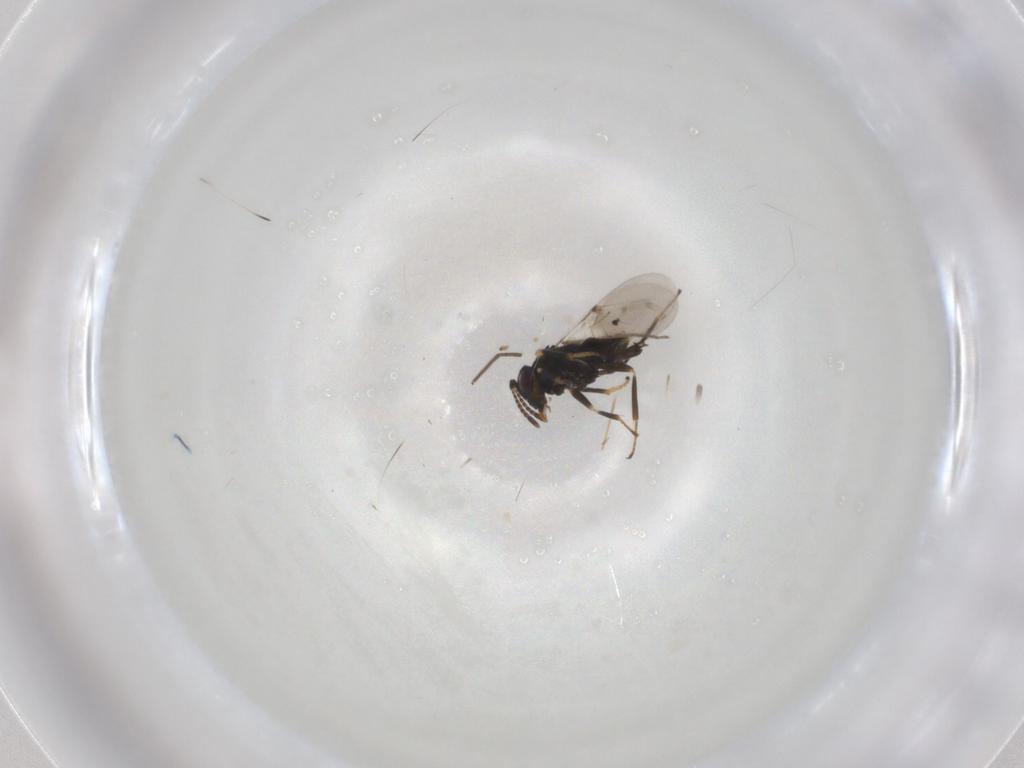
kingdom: Animalia
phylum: Arthropoda
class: Insecta
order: Hymenoptera
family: Encyrtidae
